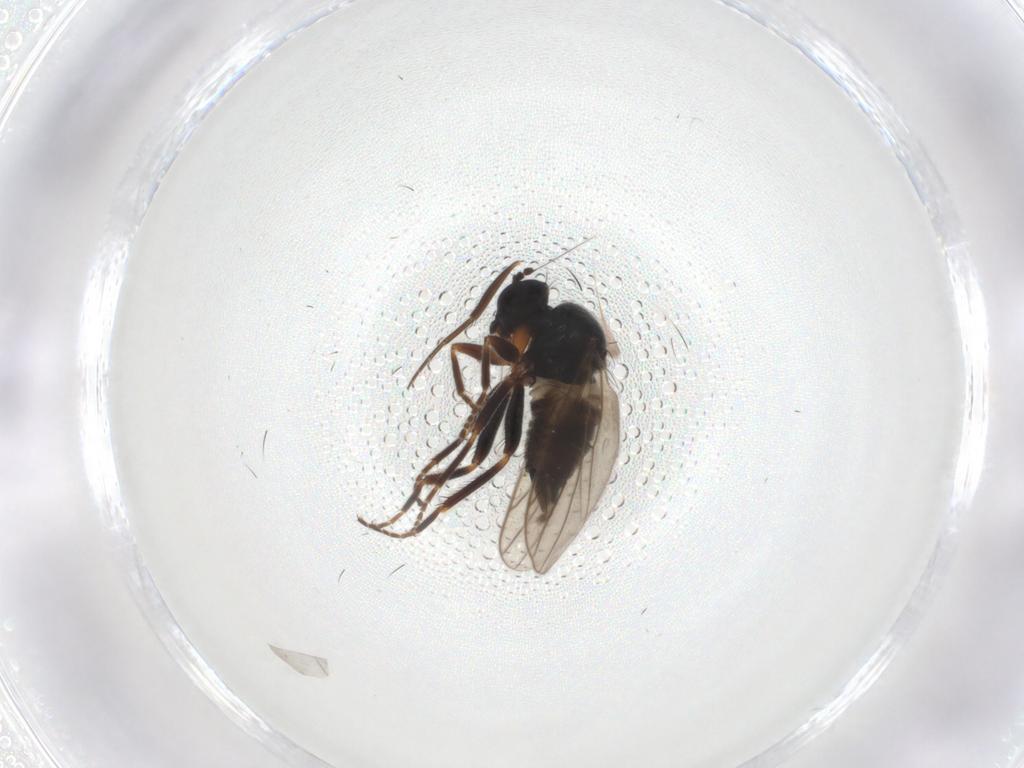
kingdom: Animalia
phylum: Arthropoda
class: Insecta
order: Diptera
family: Hybotidae
